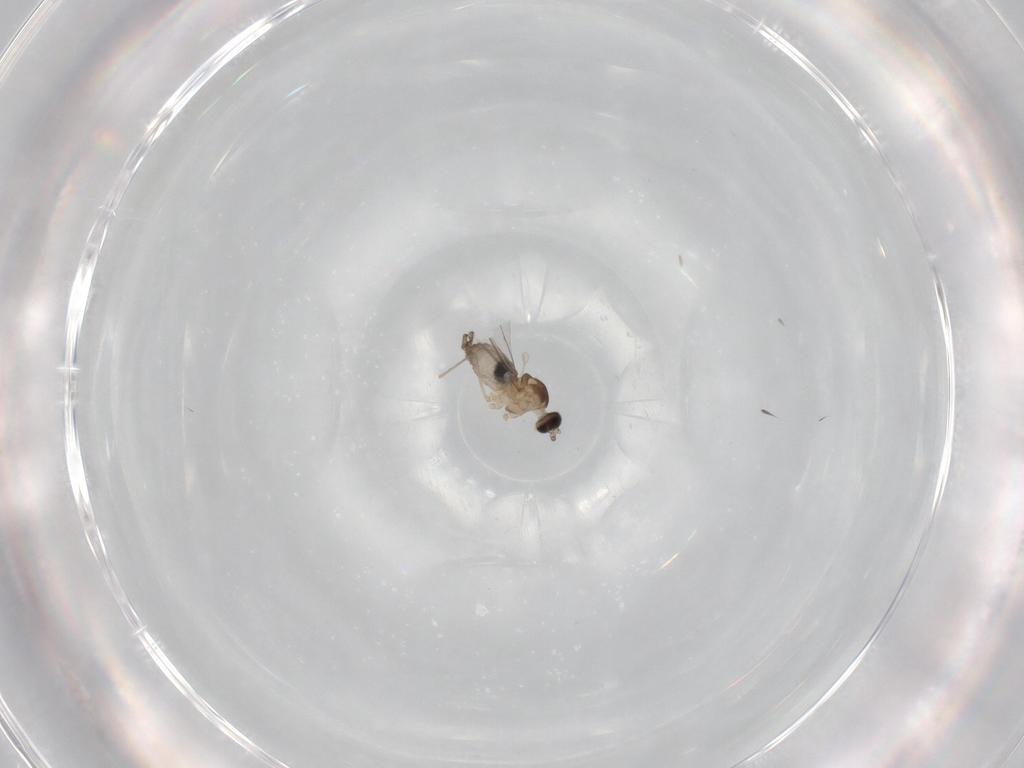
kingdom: Animalia
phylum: Arthropoda
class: Insecta
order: Diptera
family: Cecidomyiidae
